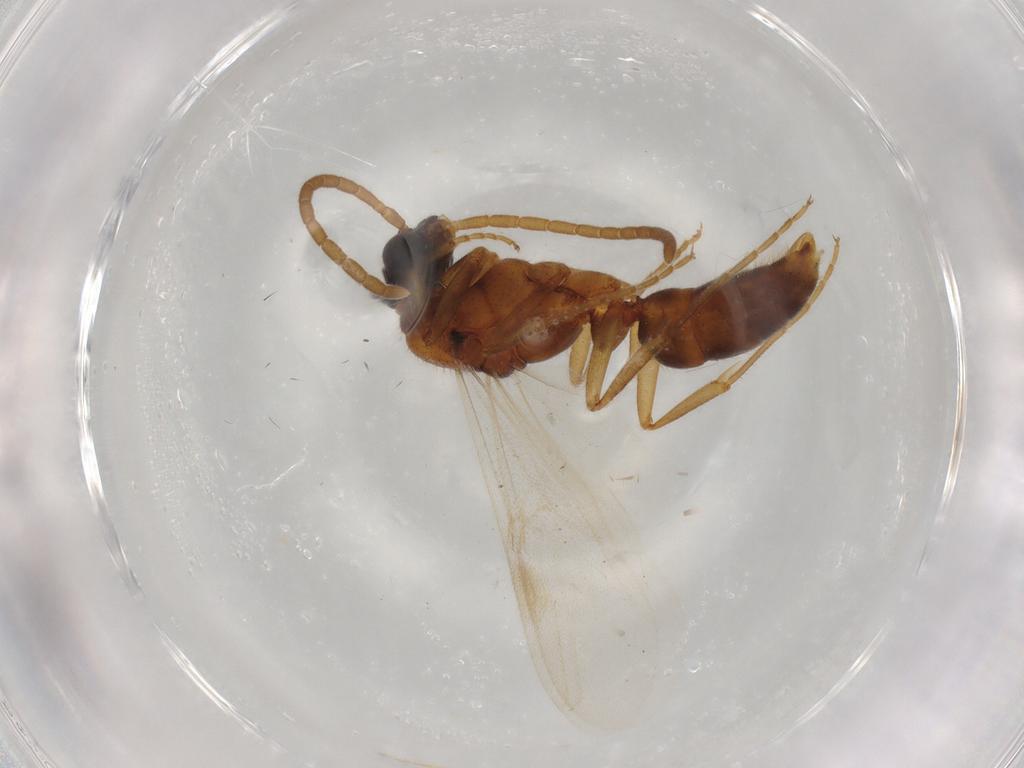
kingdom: Animalia
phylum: Arthropoda
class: Insecta
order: Hymenoptera
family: Formicidae
